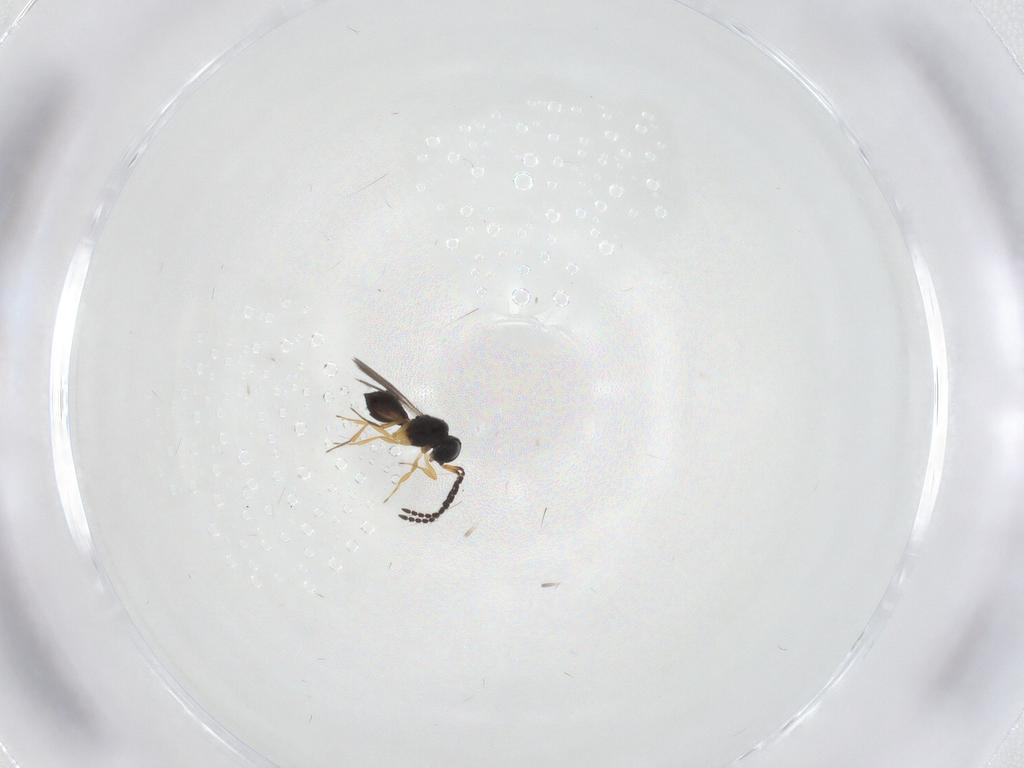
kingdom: Animalia
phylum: Arthropoda
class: Insecta
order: Hymenoptera
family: Scelionidae
